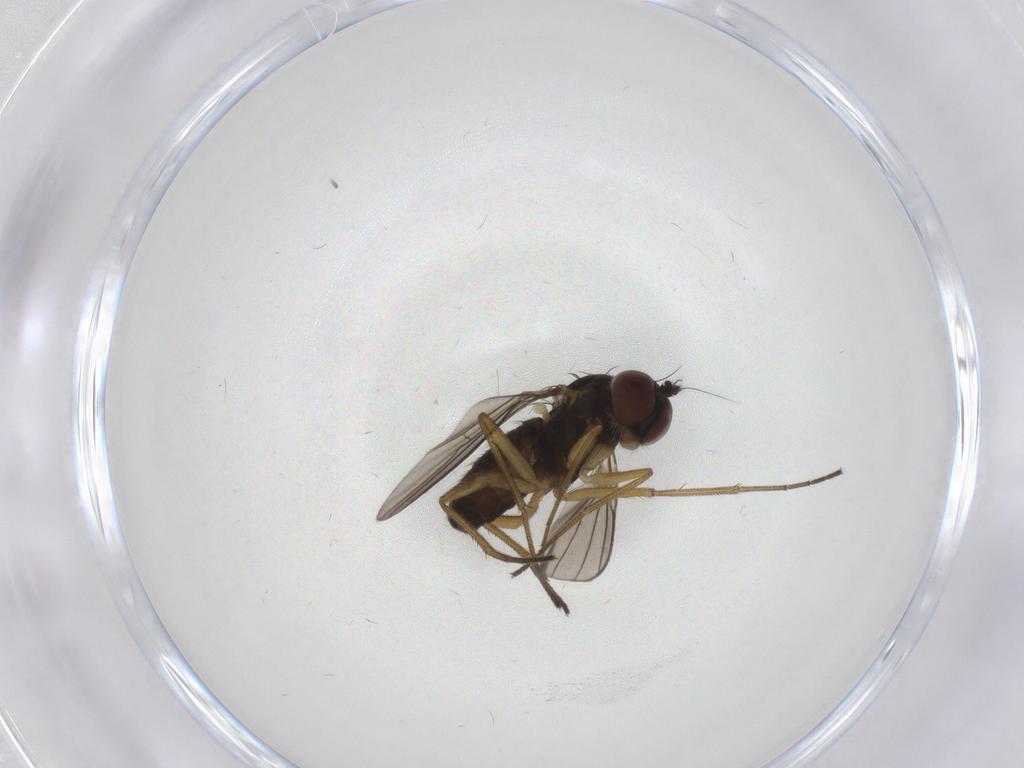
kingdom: Animalia
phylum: Arthropoda
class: Insecta
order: Diptera
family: Dolichopodidae
